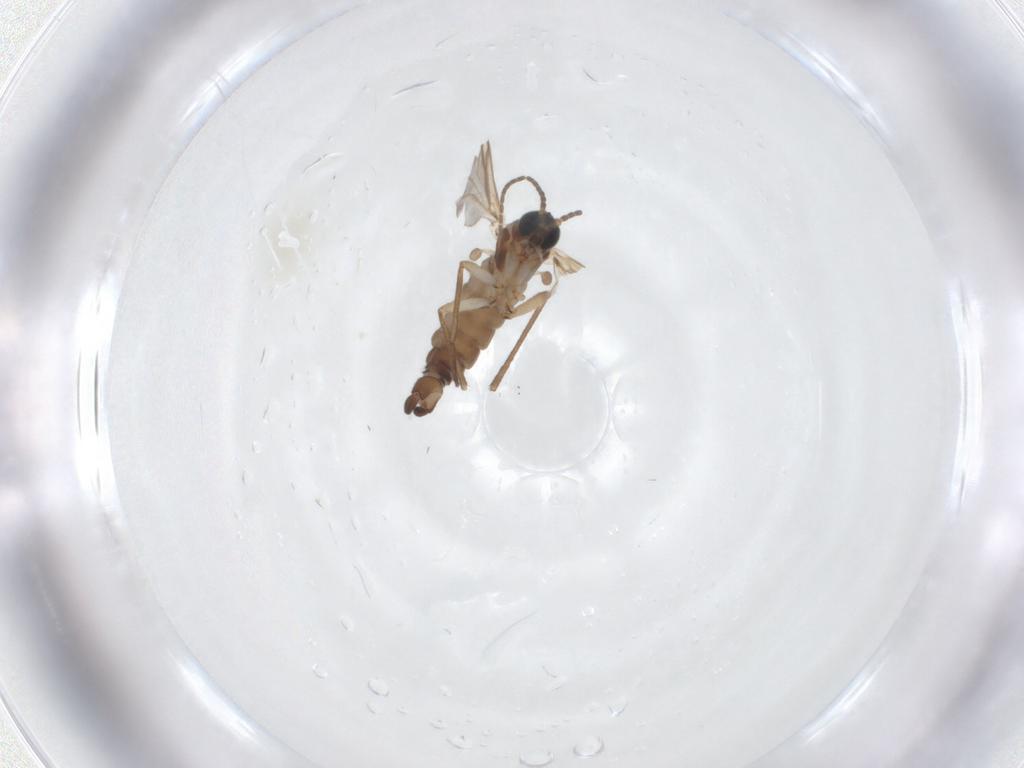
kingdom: Animalia
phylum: Arthropoda
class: Insecta
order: Diptera
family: Sciaridae
